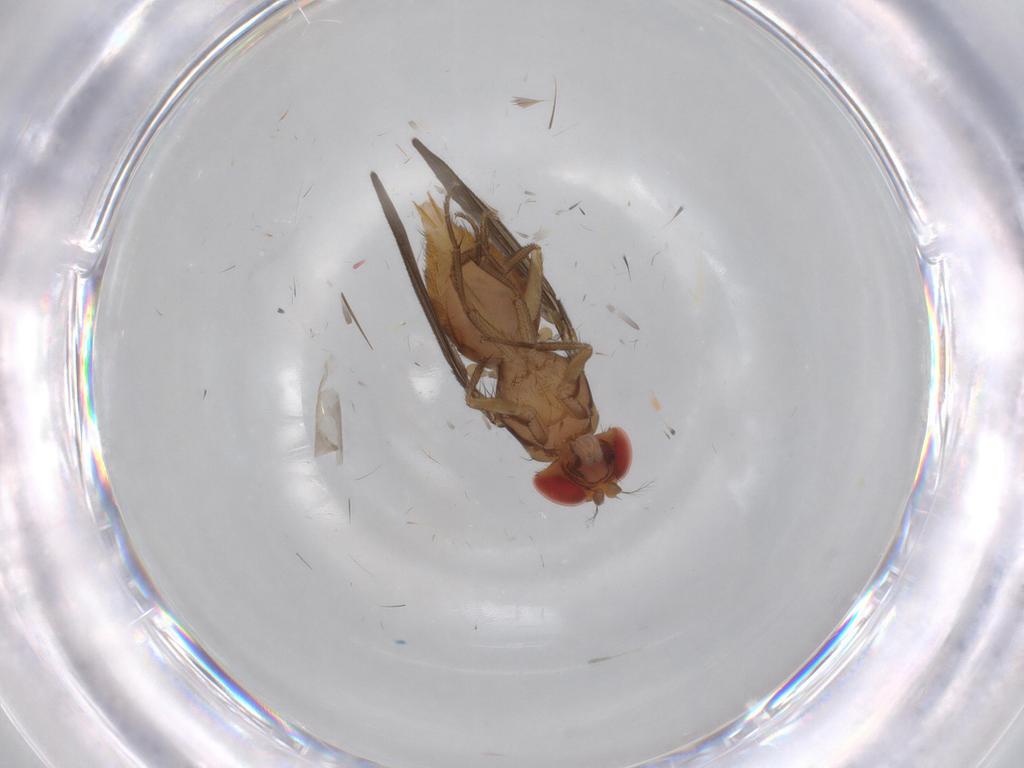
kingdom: Animalia
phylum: Arthropoda
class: Insecta
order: Diptera
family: Drosophilidae
